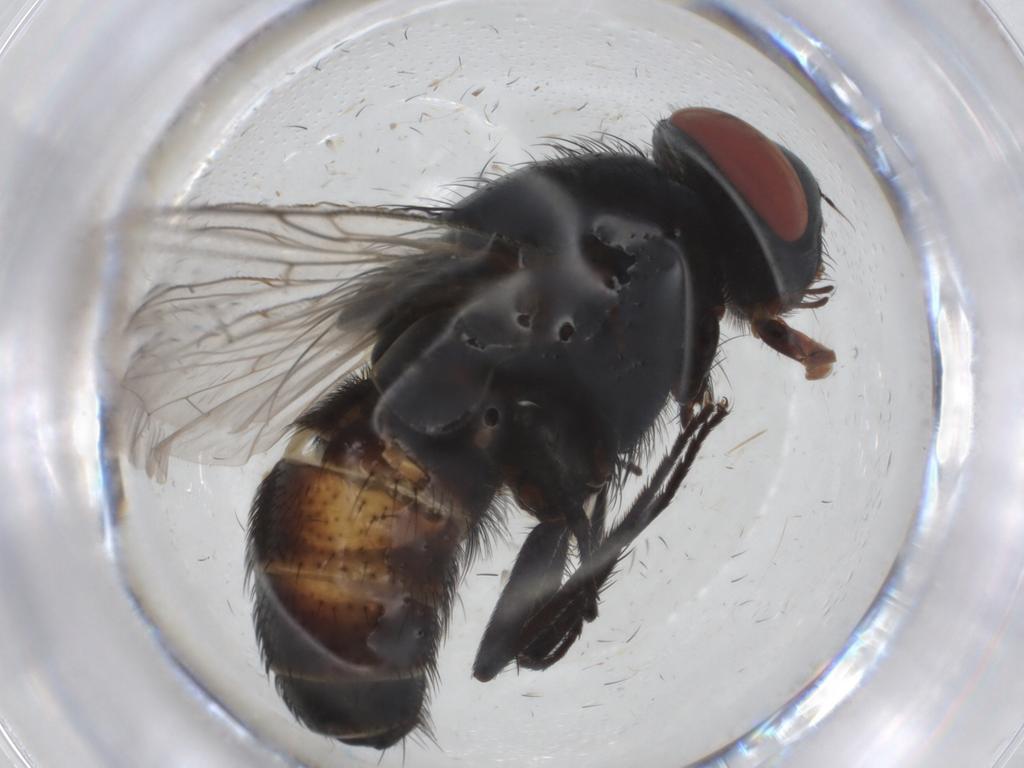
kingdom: Animalia
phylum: Arthropoda
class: Insecta
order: Diptera
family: Sarcophagidae
